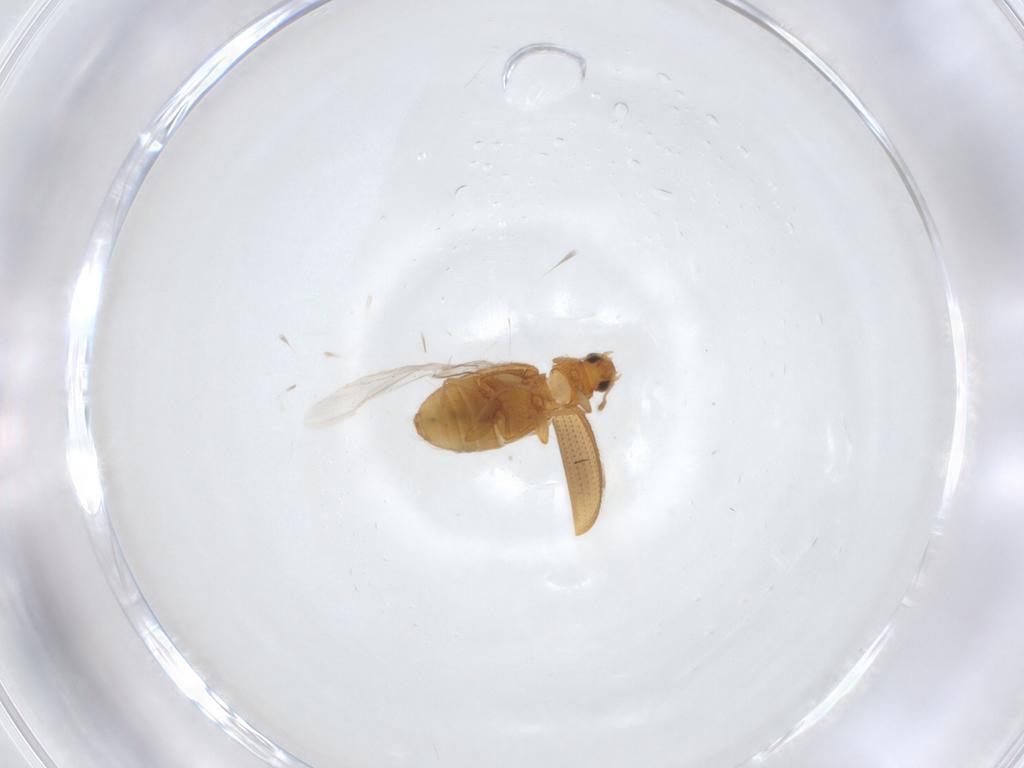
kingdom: Animalia
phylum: Arthropoda
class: Insecta
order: Coleoptera
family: Latridiidae
